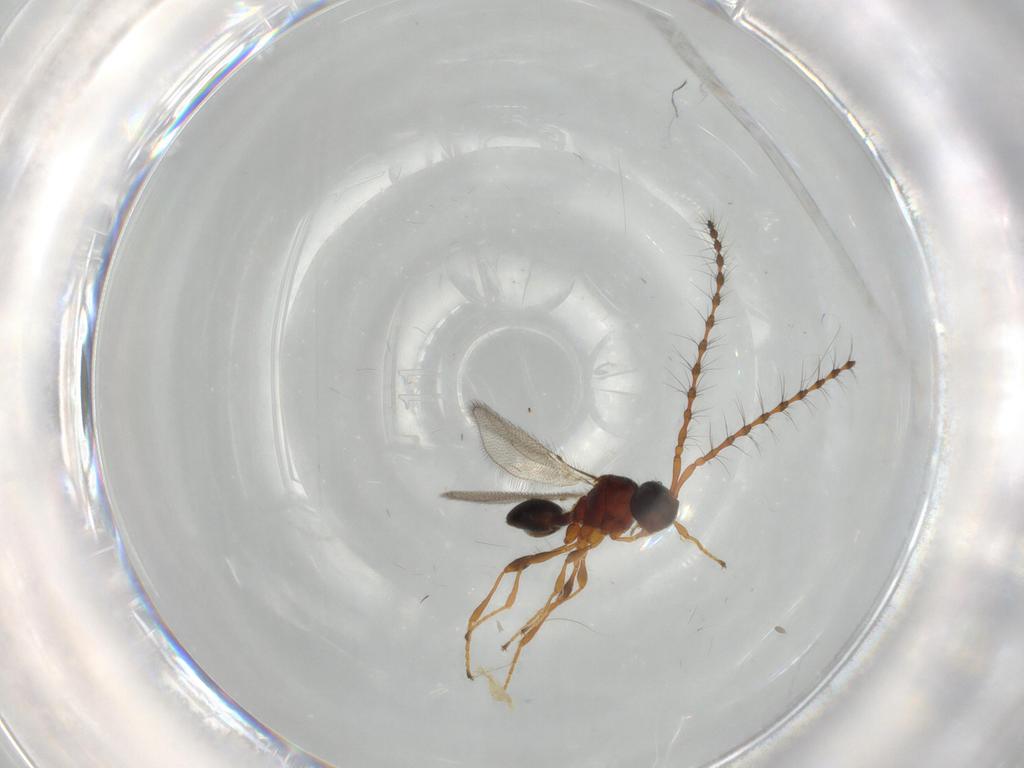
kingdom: Animalia
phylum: Arthropoda
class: Insecta
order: Hymenoptera
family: Diapriidae
